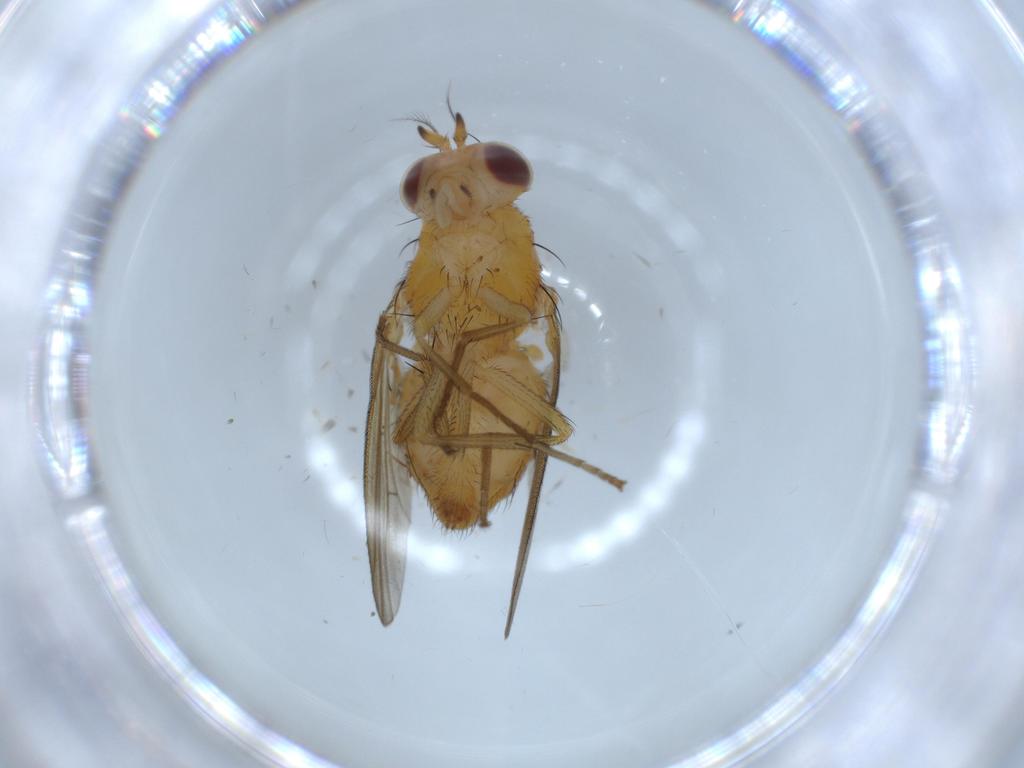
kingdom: Animalia
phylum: Arthropoda
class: Insecta
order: Diptera
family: Lauxaniidae
